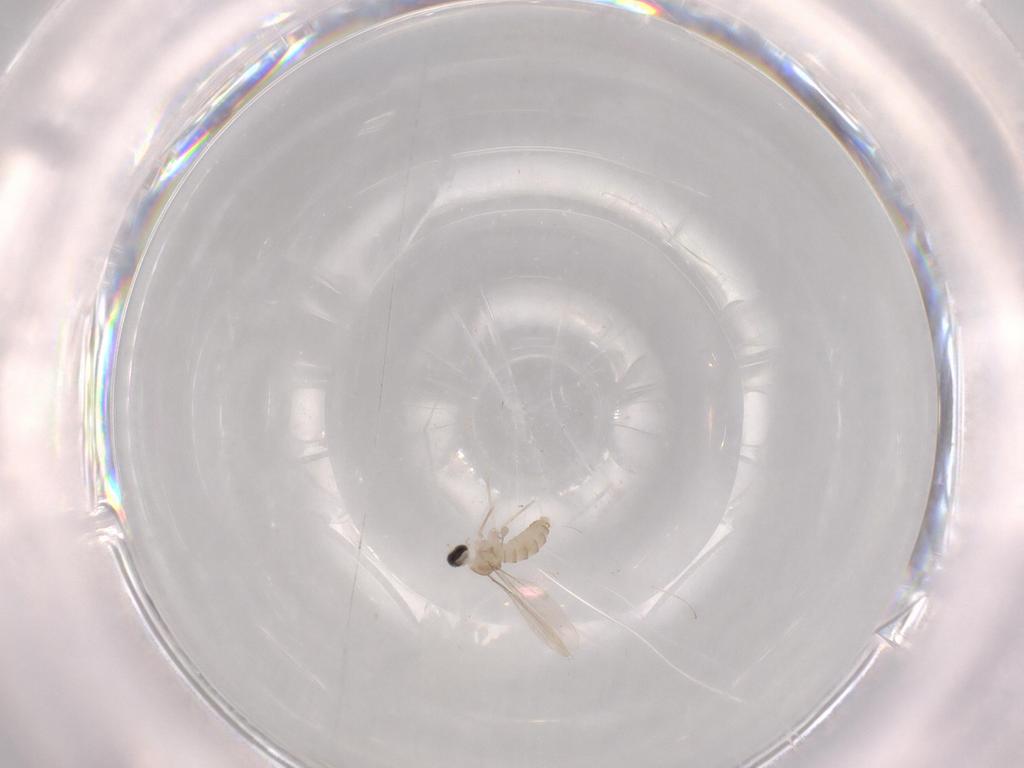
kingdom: Animalia
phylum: Arthropoda
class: Insecta
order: Diptera
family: Cecidomyiidae
